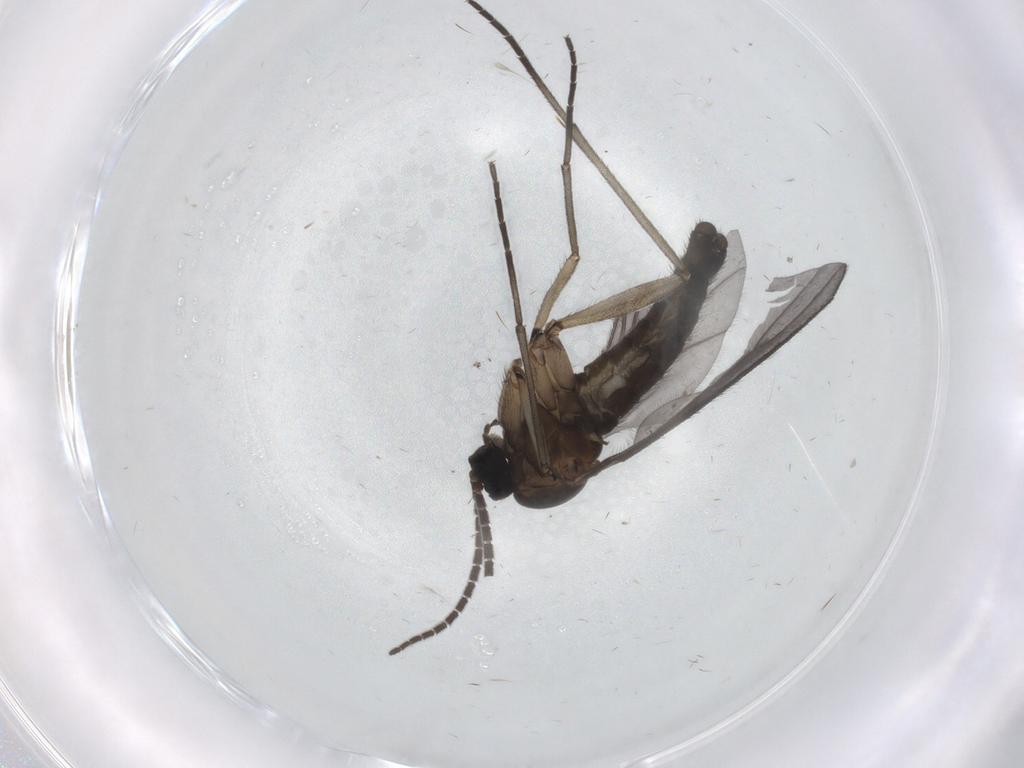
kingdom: Animalia
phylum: Arthropoda
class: Insecta
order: Diptera
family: Sciaridae
